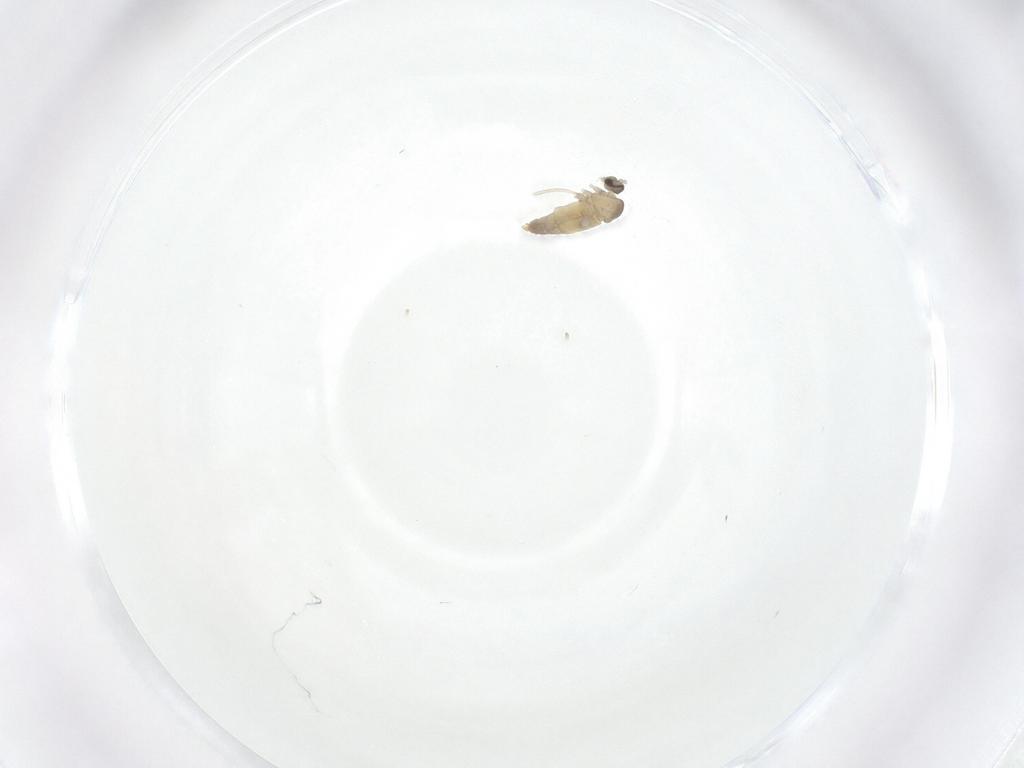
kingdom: Animalia
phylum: Arthropoda
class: Insecta
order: Diptera
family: Cecidomyiidae
